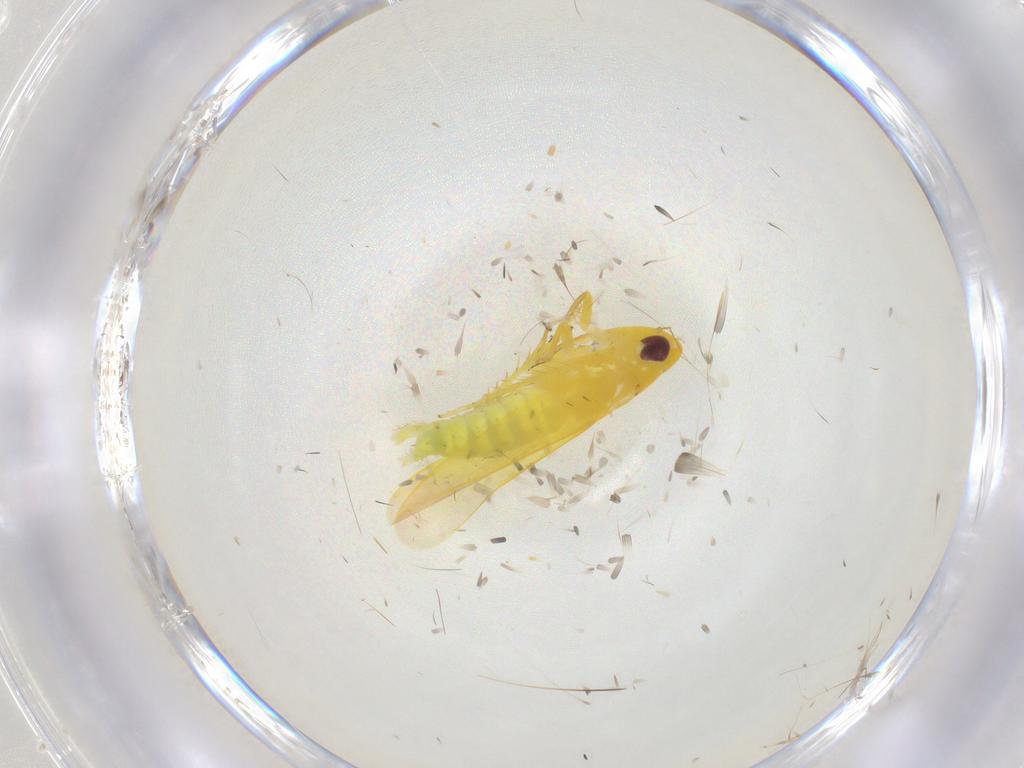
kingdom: Animalia
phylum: Arthropoda
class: Insecta
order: Hemiptera
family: Cicadellidae
